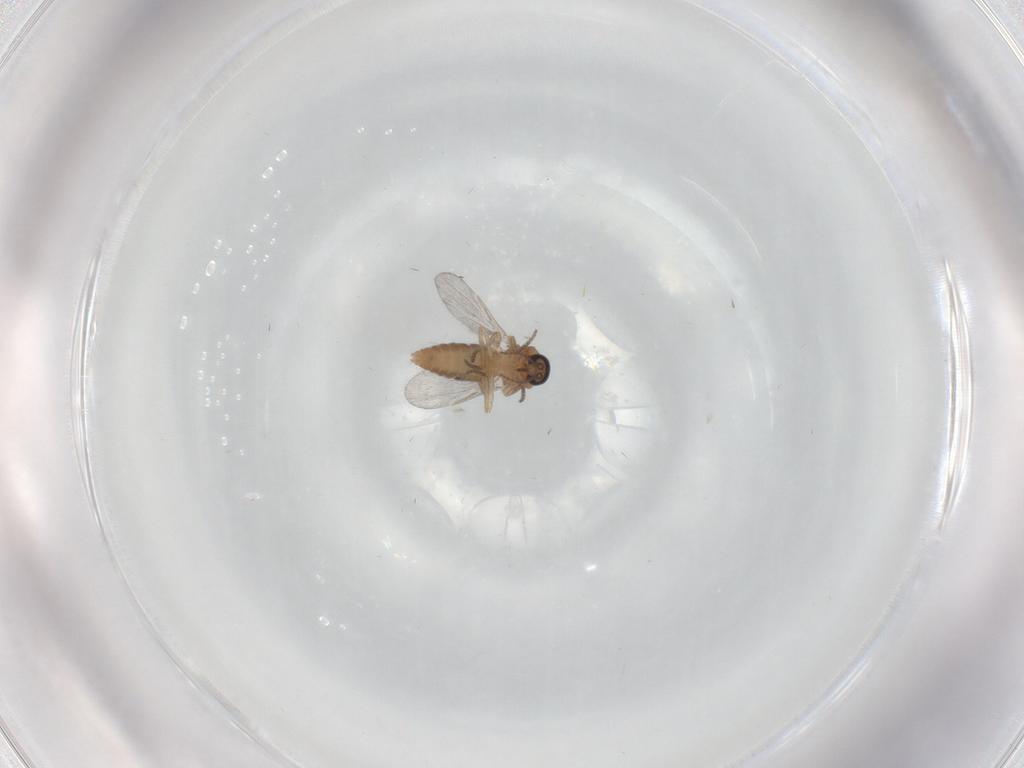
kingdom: Animalia
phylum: Arthropoda
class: Insecta
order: Diptera
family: Ceratopogonidae
